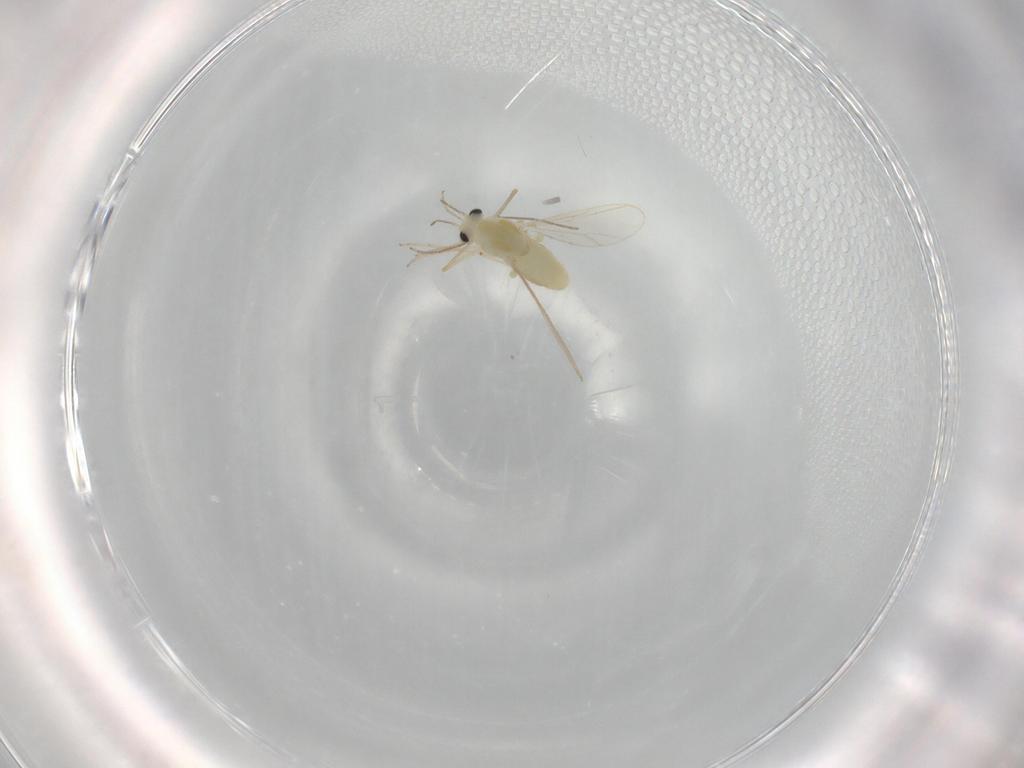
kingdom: Animalia
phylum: Arthropoda
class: Insecta
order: Diptera
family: Chironomidae
